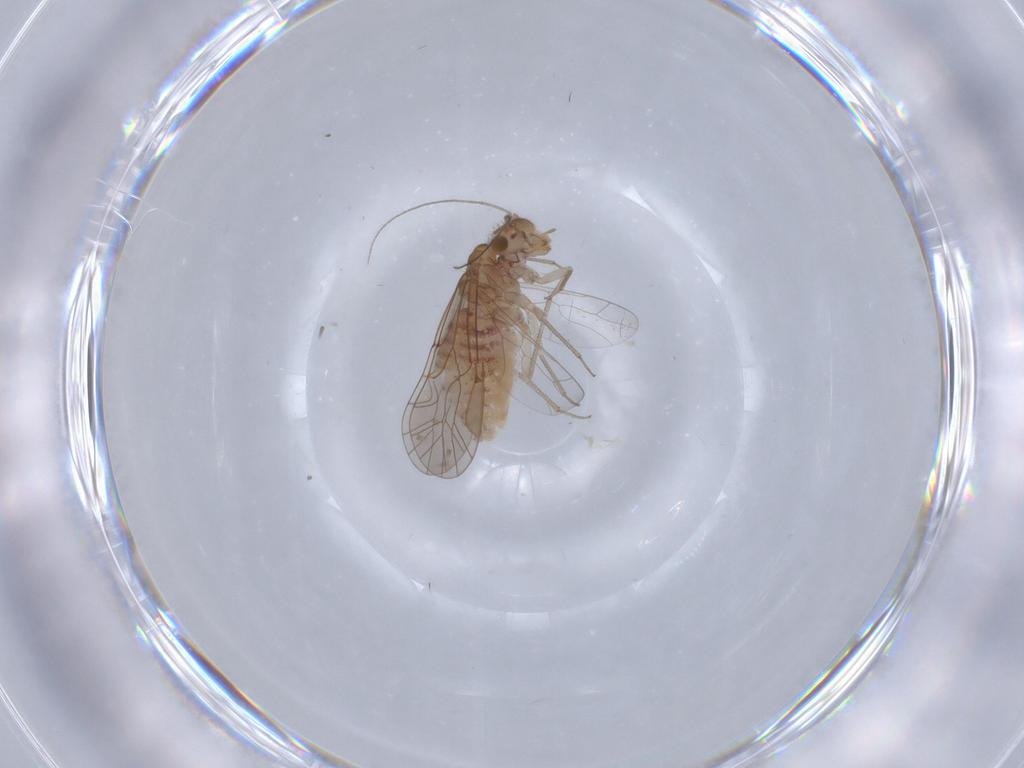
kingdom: Animalia
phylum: Arthropoda
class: Insecta
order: Psocodea
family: Lachesillidae
